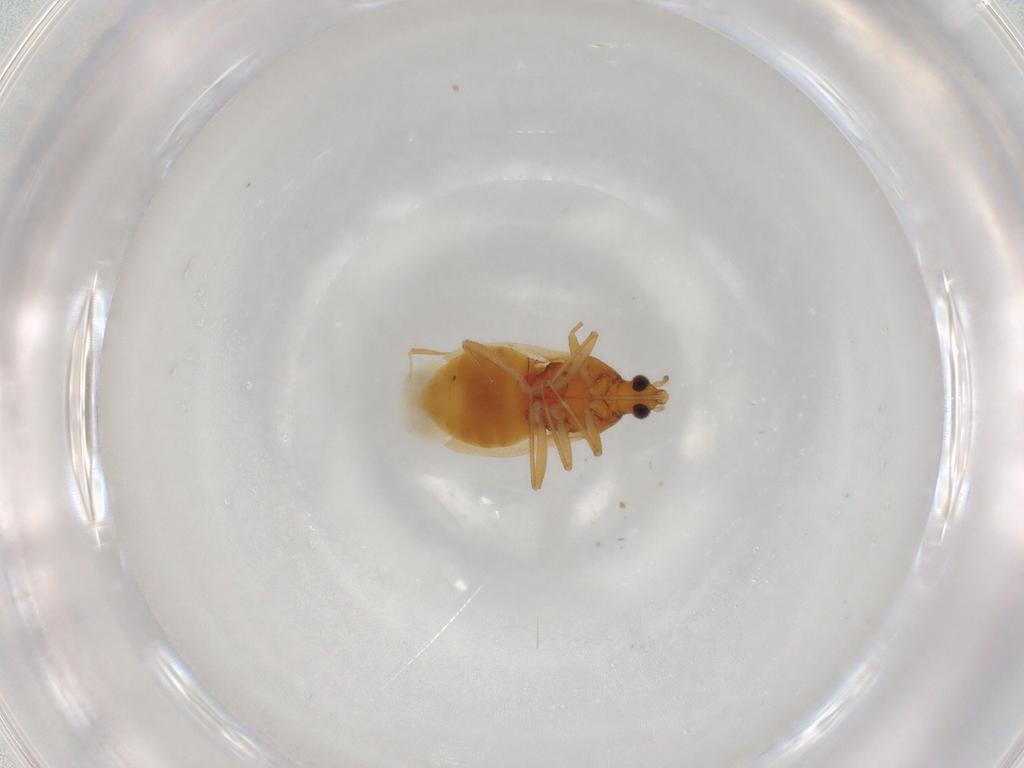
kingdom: Animalia
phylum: Arthropoda
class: Insecta
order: Hemiptera
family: Anthocoridae
